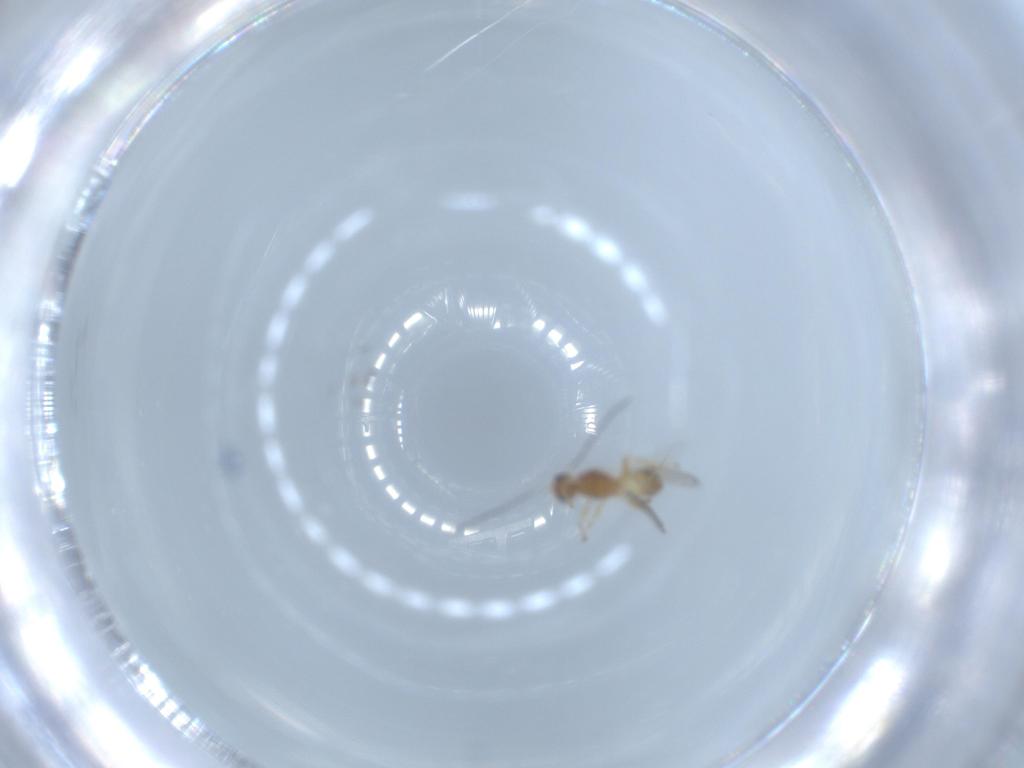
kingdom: Animalia
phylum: Arthropoda
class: Insecta
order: Hymenoptera
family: Formicidae
